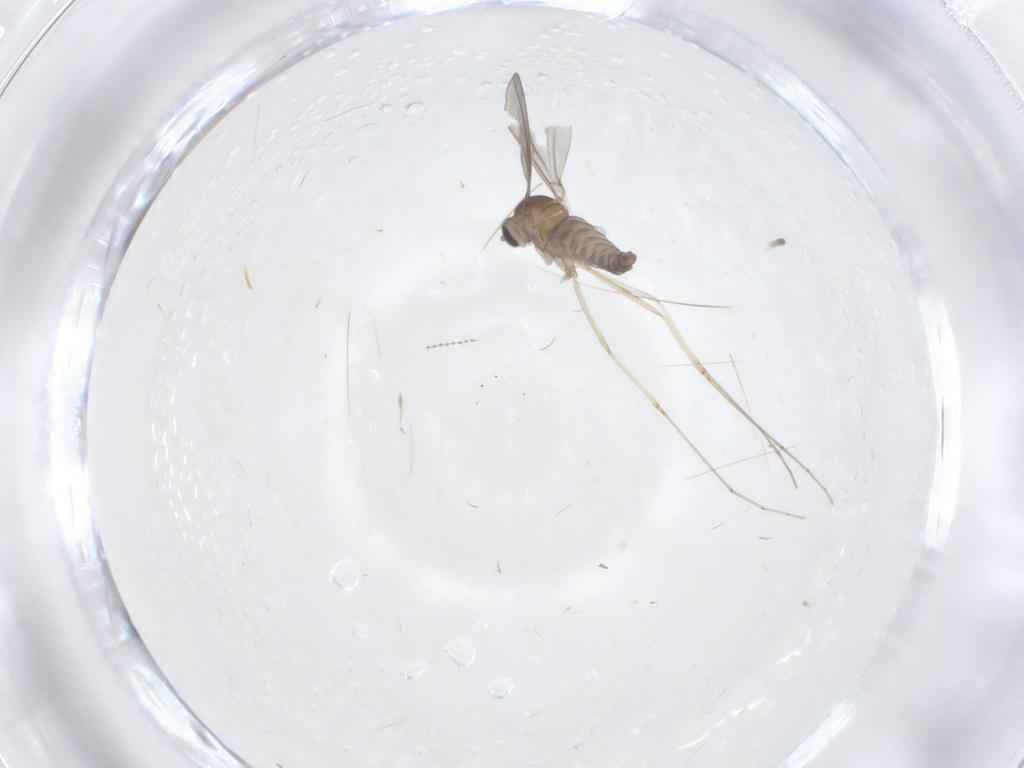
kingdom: Animalia
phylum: Arthropoda
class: Insecta
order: Diptera
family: Cecidomyiidae
